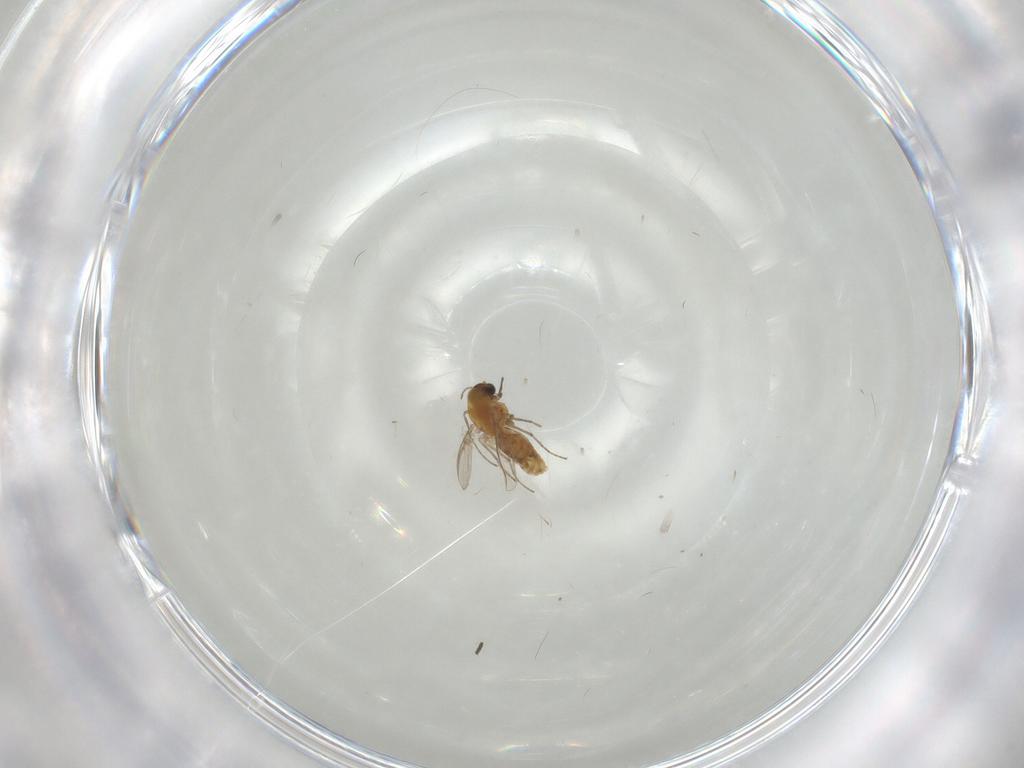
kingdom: Animalia
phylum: Arthropoda
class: Insecta
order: Diptera
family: Chironomidae
